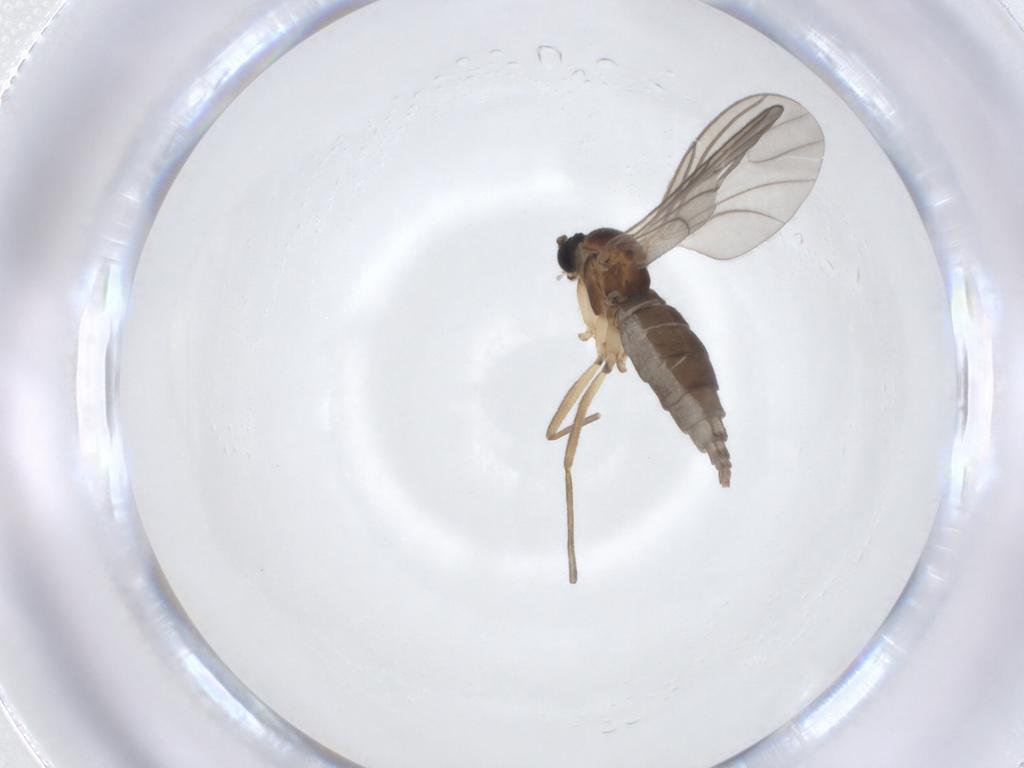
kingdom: Animalia
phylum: Arthropoda
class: Insecta
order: Diptera
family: Sciaridae
